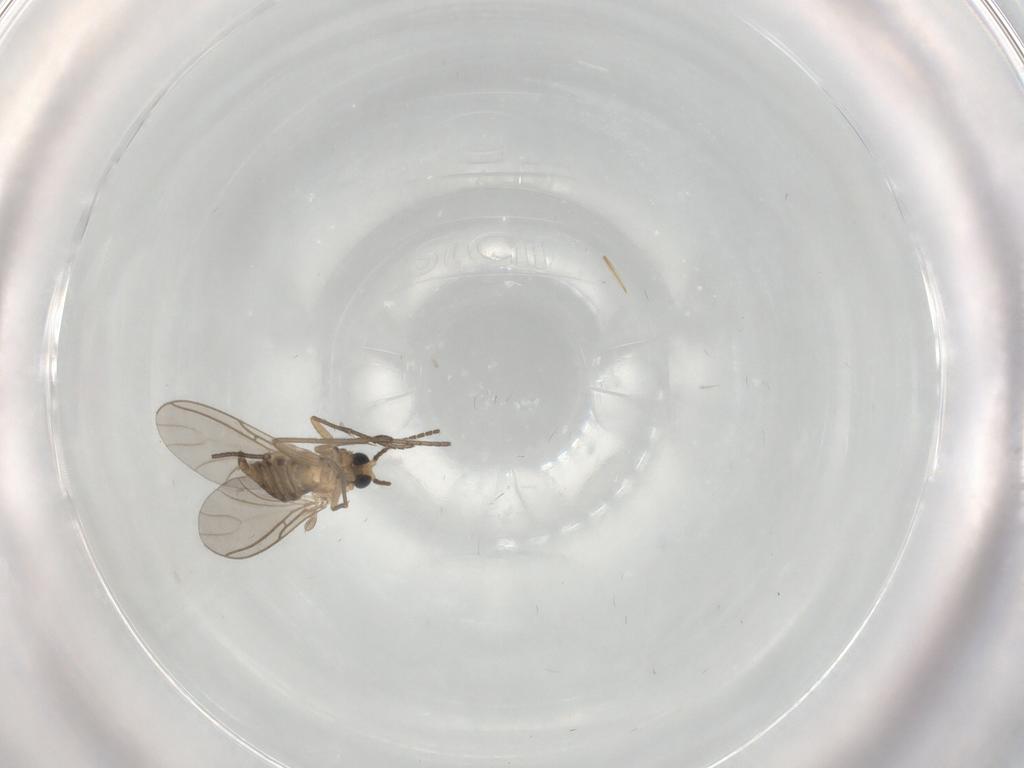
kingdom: Animalia
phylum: Arthropoda
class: Insecta
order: Diptera
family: Sciaridae
